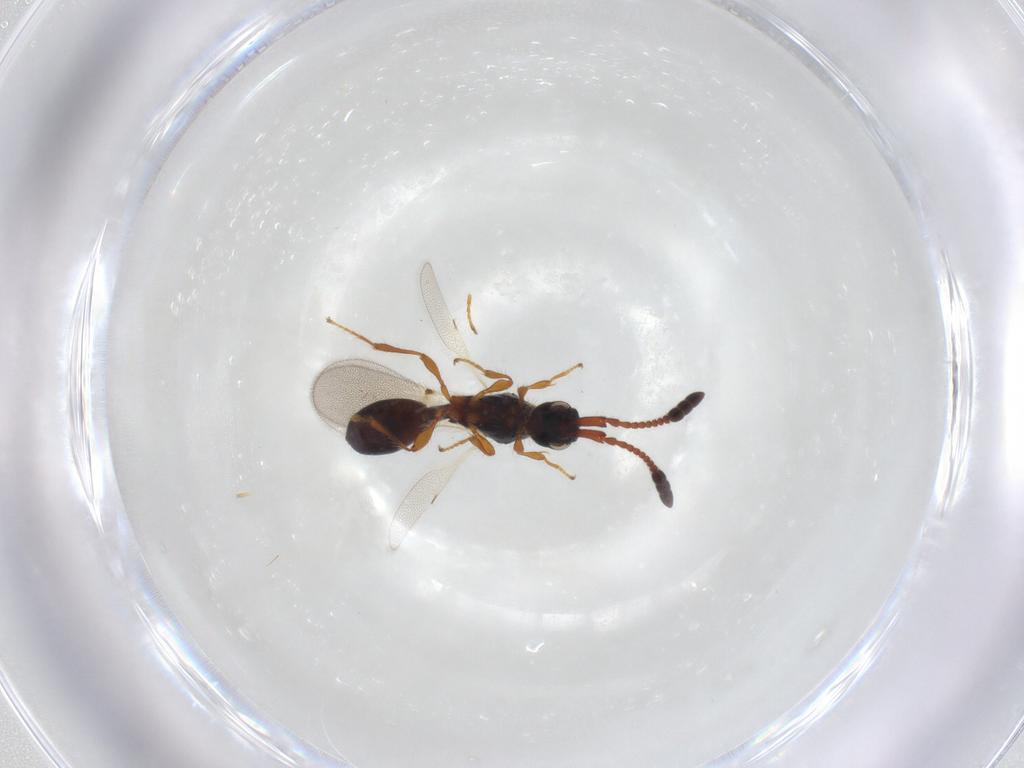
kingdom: Animalia
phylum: Arthropoda
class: Insecta
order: Hymenoptera
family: Diapriidae
